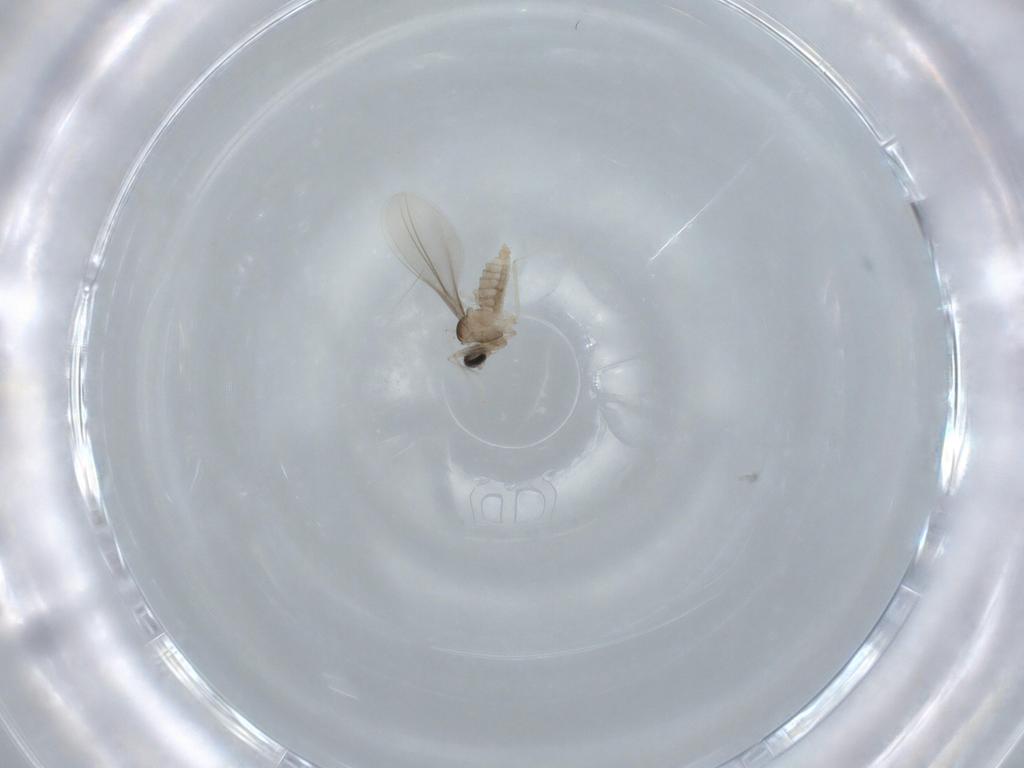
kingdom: Animalia
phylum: Arthropoda
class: Insecta
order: Diptera
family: Cecidomyiidae
